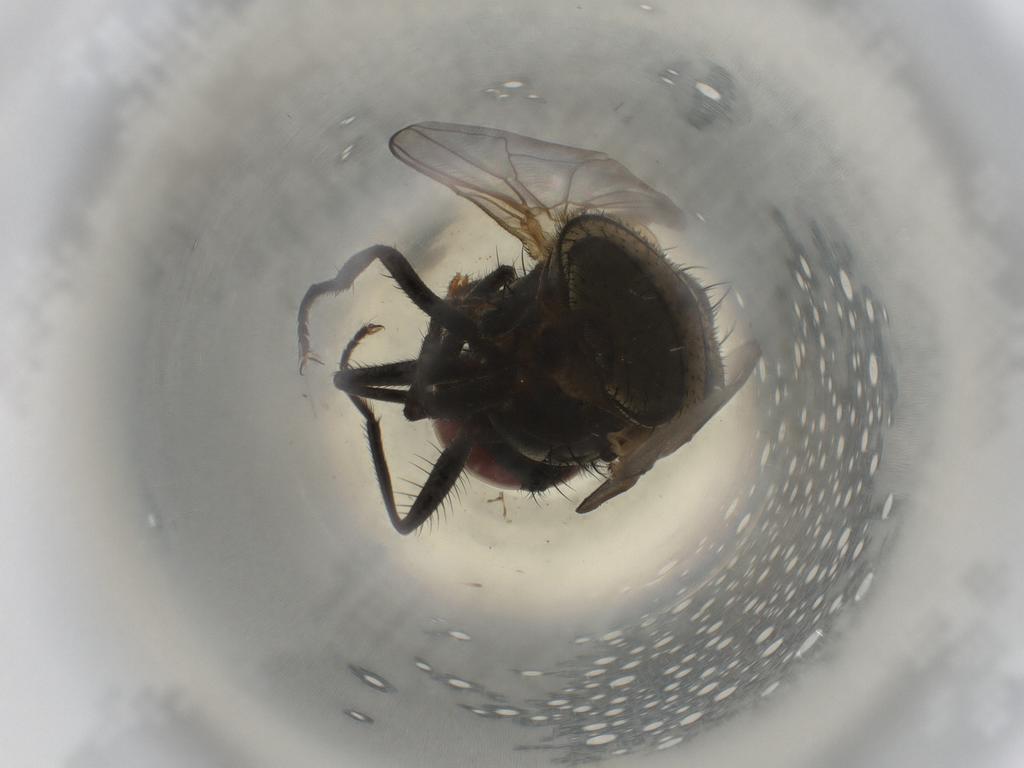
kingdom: Animalia
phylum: Arthropoda
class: Insecta
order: Diptera
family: Muscidae
